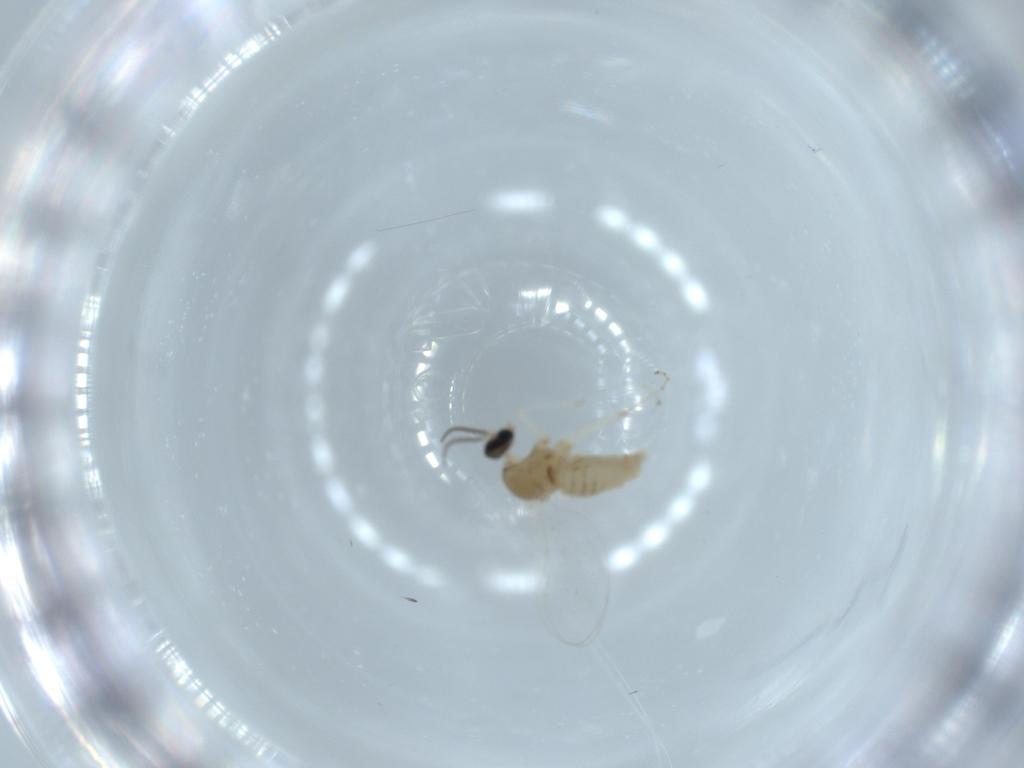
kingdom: Animalia
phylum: Arthropoda
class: Insecta
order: Diptera
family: Cecidomyiidae
